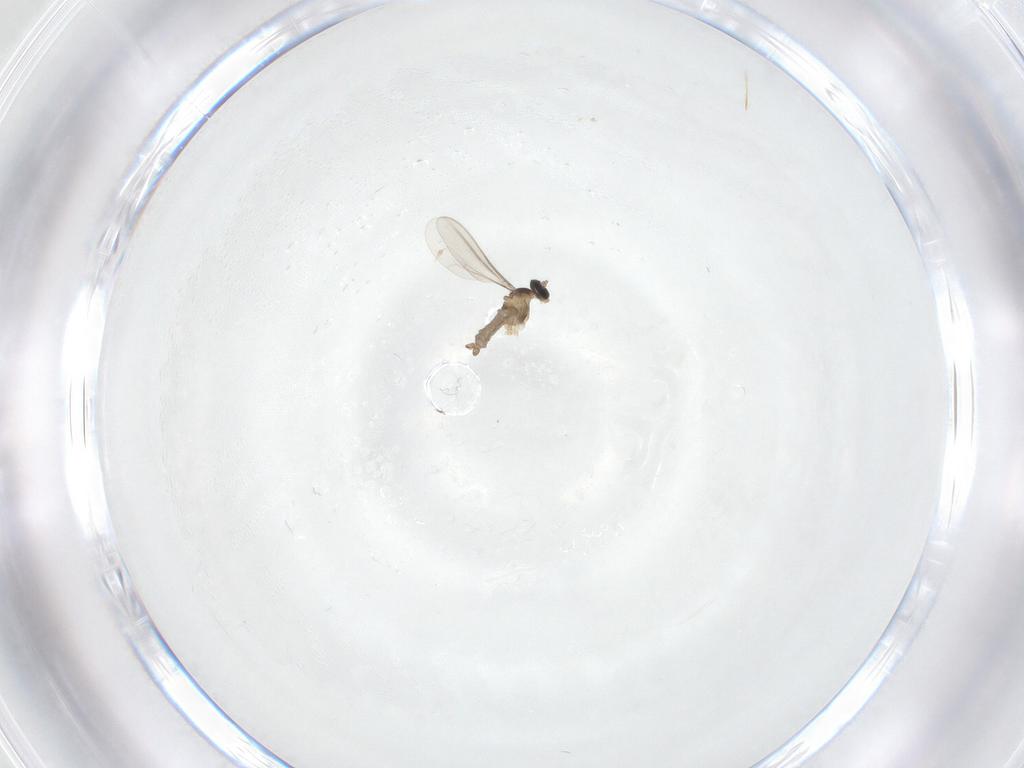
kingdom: Animalia
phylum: Arthropoda
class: Insecta
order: Diptera
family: Cecidomyiidae
